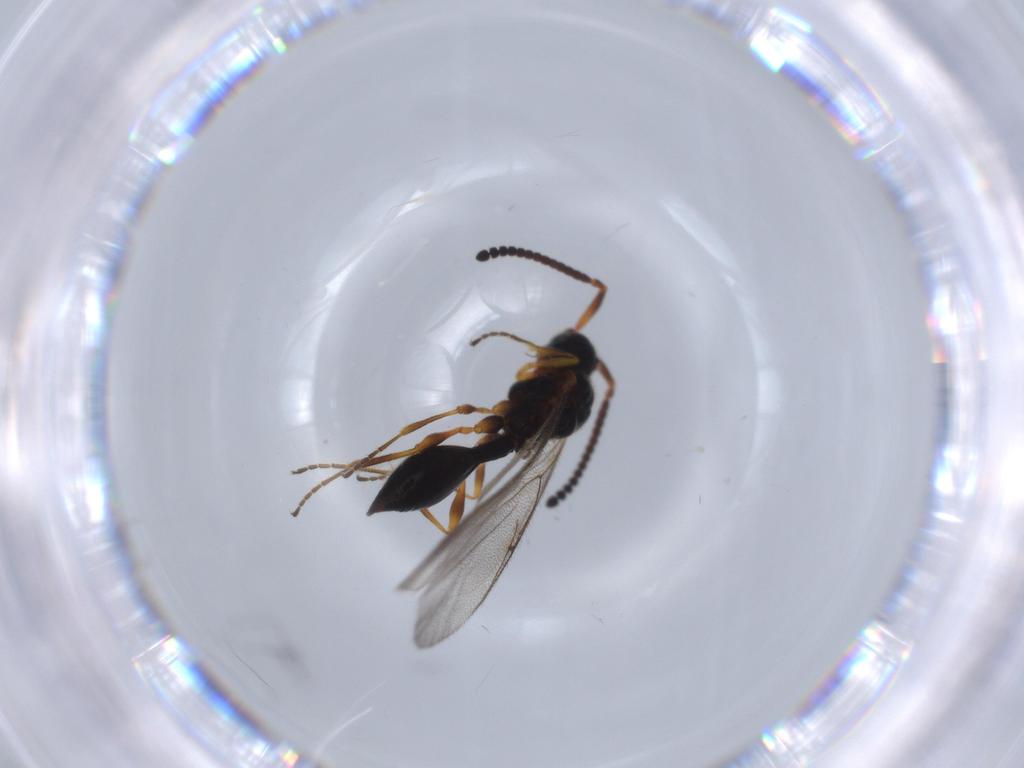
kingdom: Animalia
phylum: Arthropoda
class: Insecta
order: Hymenoptera
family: Diapriidae
